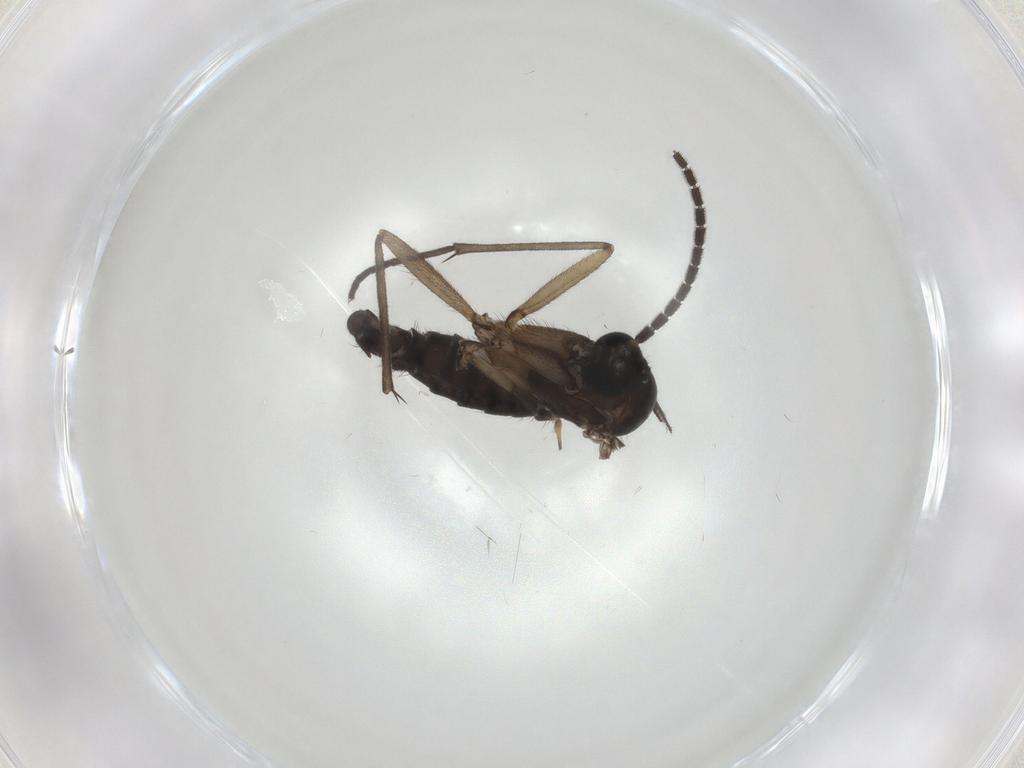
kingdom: Animalia
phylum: Arthropoda
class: Insecta
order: Diptera
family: Sciaridae
